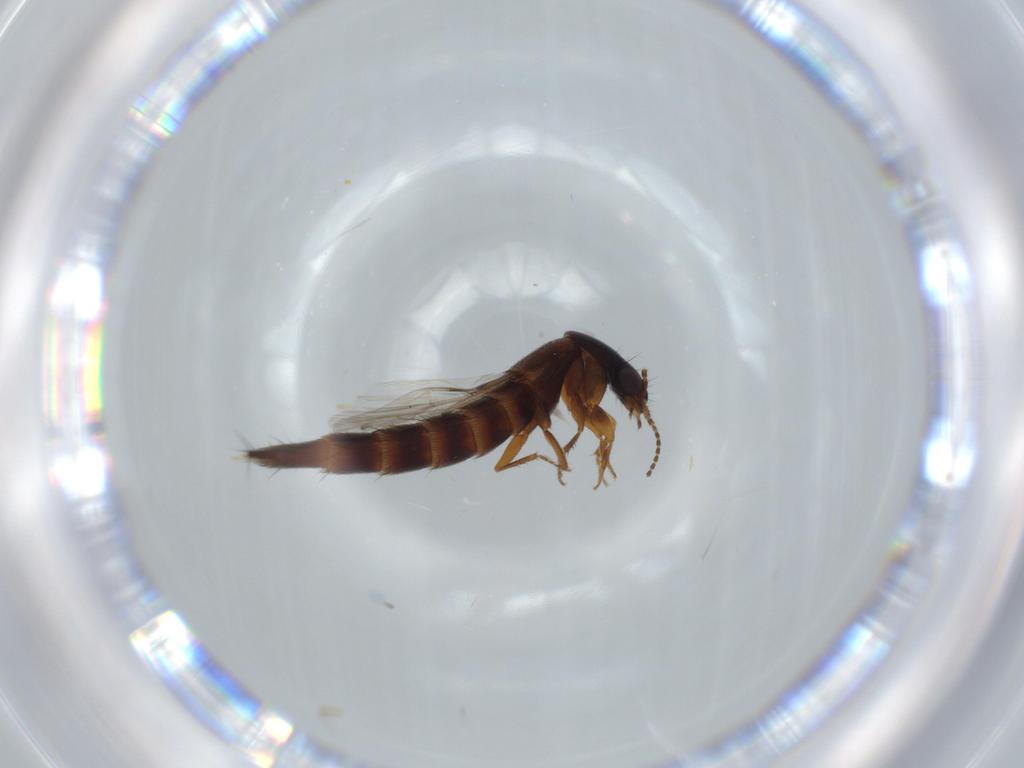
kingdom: Animalia
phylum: Arthropoda
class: Insecta
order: Coleoptera
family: Staphylinidae
